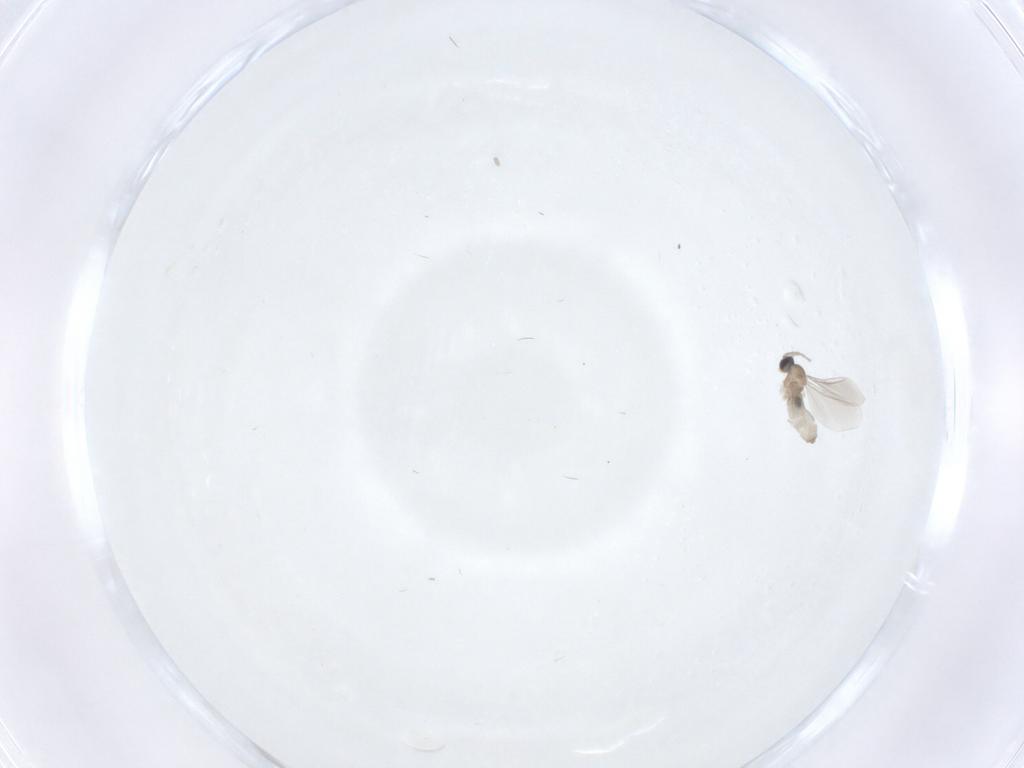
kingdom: Animalia
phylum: Arthropoda
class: Insecta
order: Diptera
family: Cecidomyiidae
